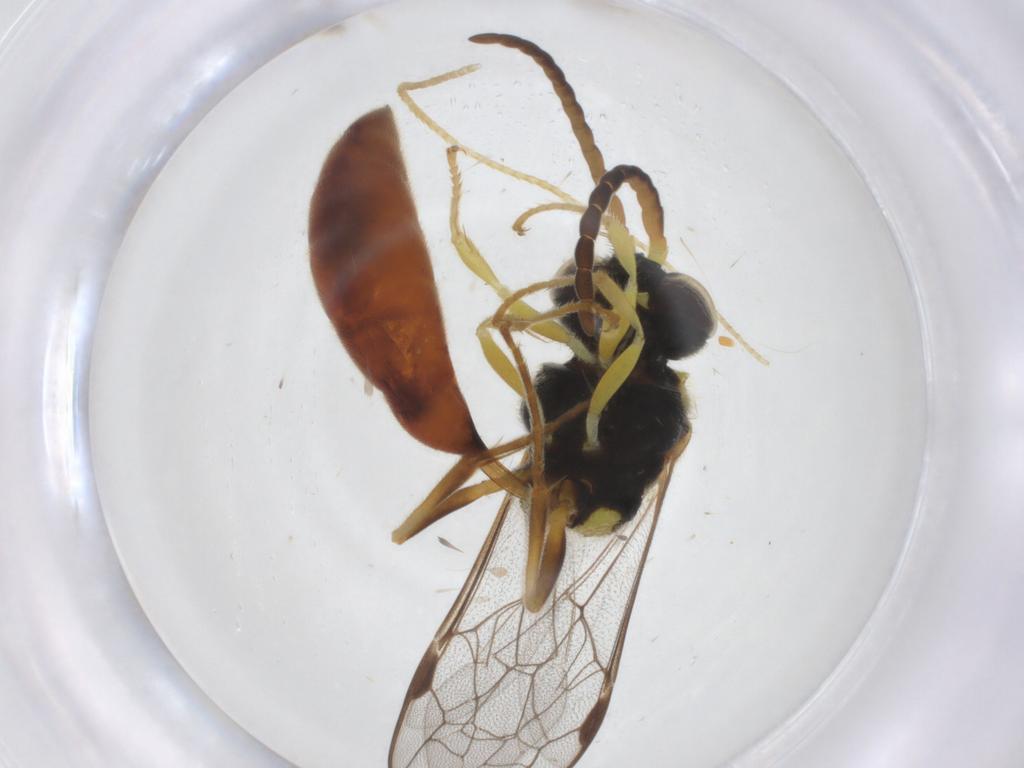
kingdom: Animalia
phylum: Arthropoda
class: Insecta
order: Hymenoptera
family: Crabronidae
